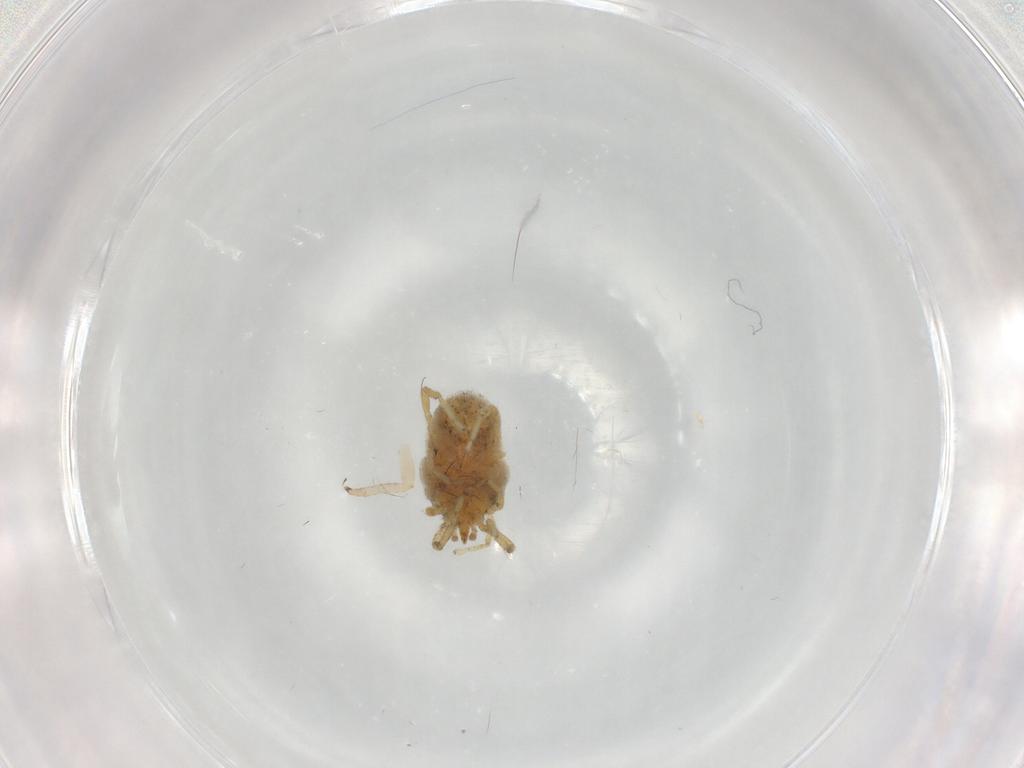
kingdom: Animalia
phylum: Arthropoda
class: Arachnida
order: Trombidiformes
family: Erythraeidae
